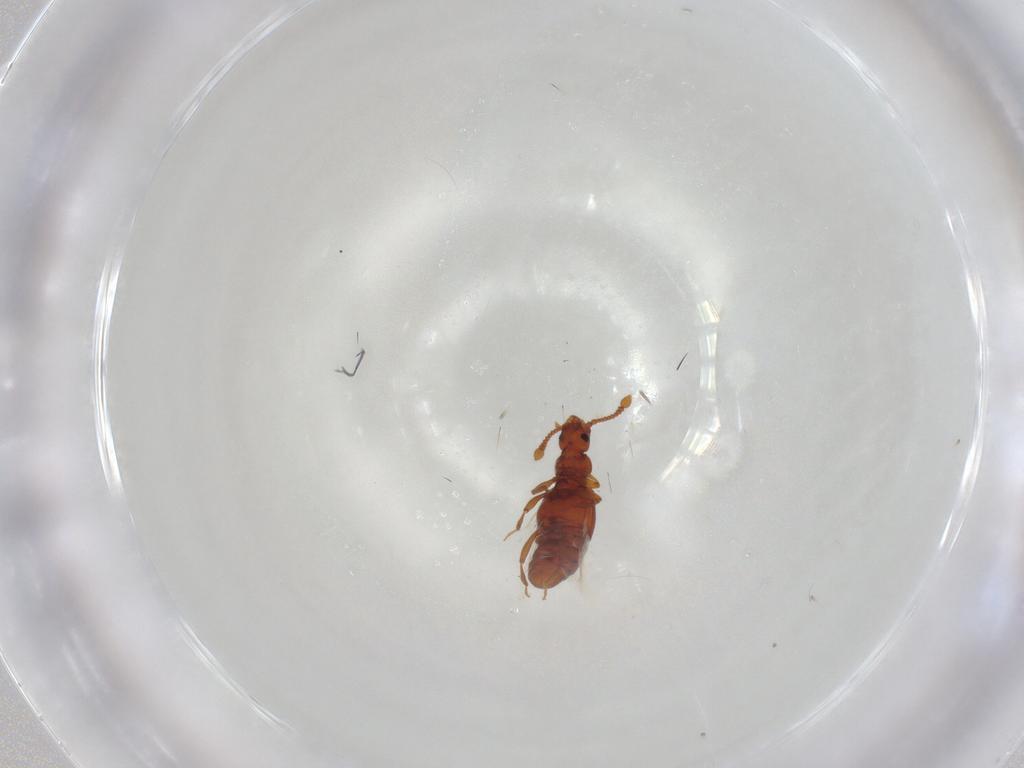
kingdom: Animalia
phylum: Arthropoda
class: Insecta
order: Coleoptera
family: Staphylinidae
